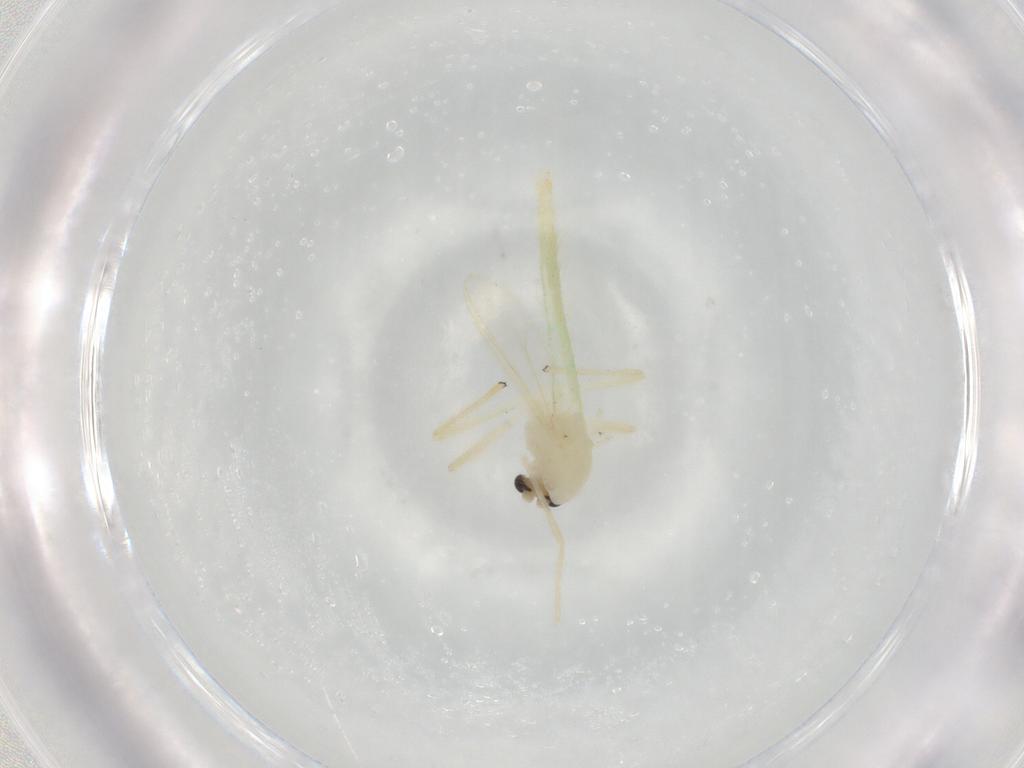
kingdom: Animalia
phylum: Arthropoda
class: Insecta
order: Diptera
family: Chironomidae
